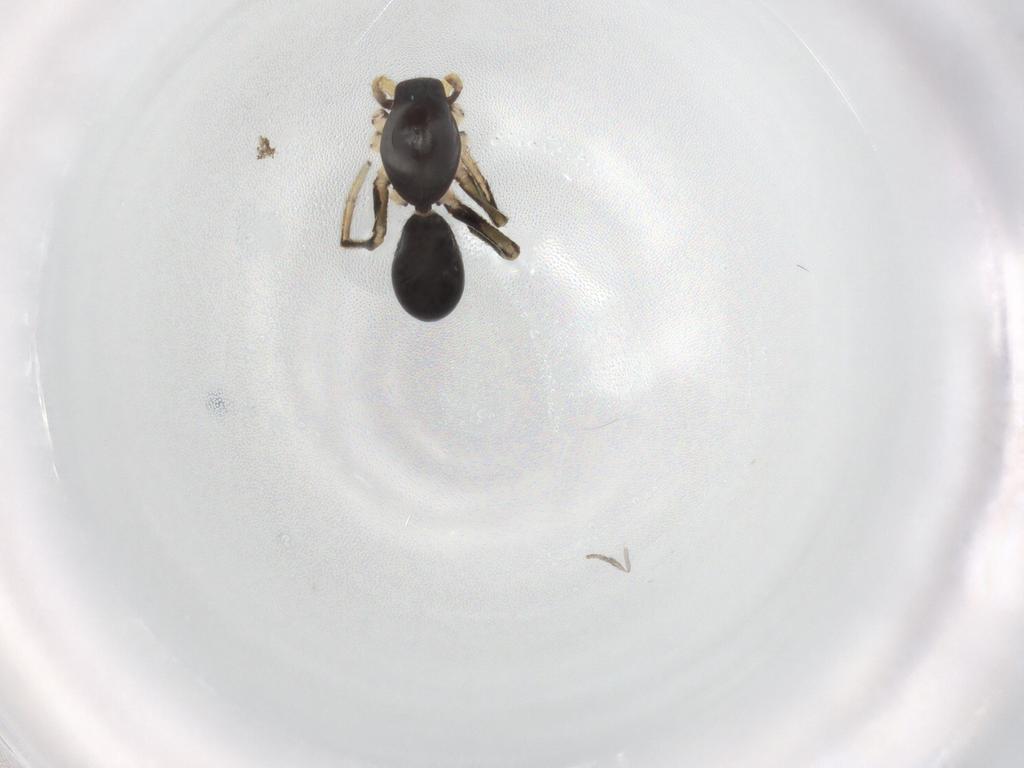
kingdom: Animalia
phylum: Arthropoda
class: Arachnida
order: Araneae
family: Corinnidae
